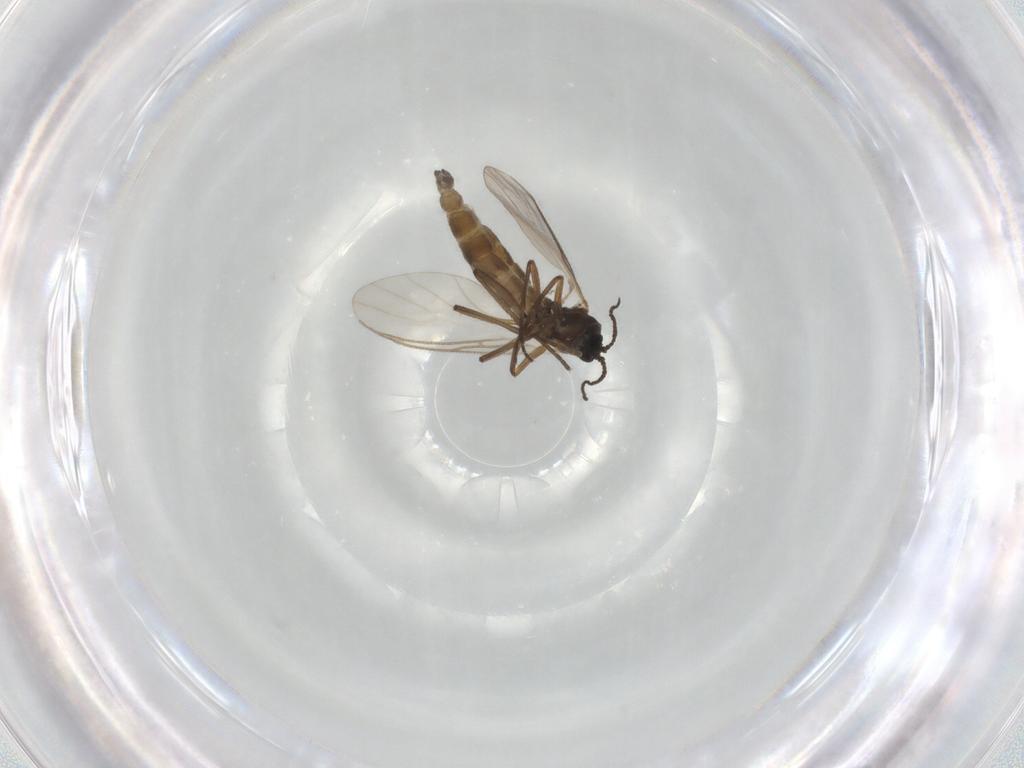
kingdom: Animalia
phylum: Arthropoda
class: Insecta
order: Diptera
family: Sciaridae
